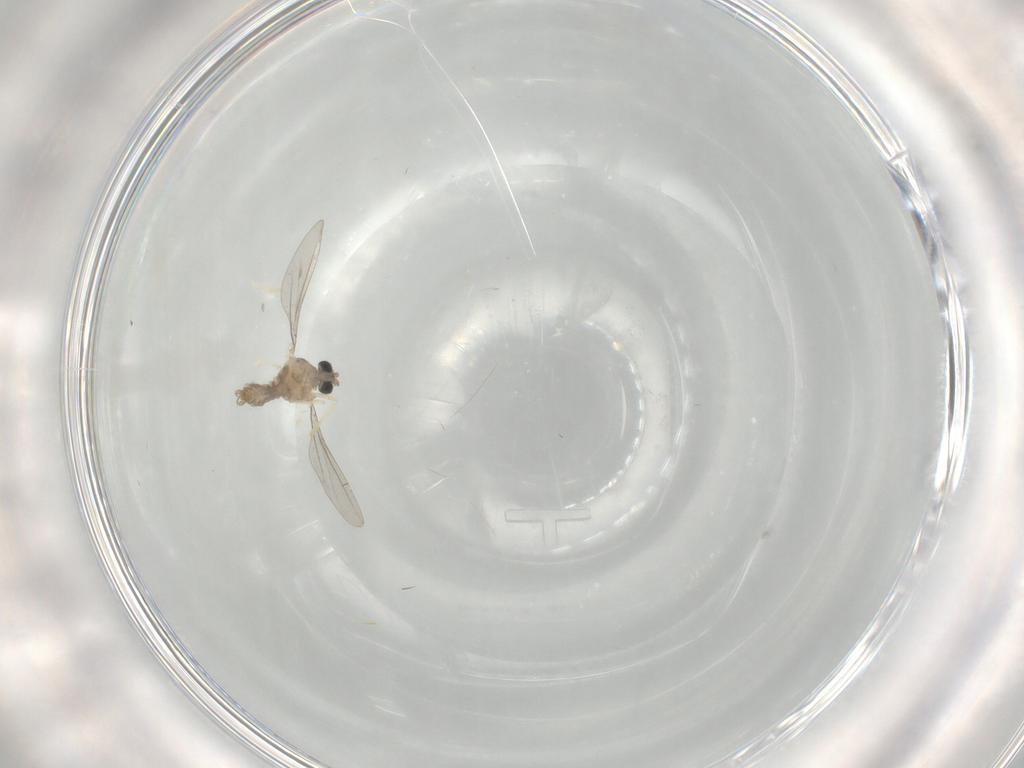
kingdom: Animalia
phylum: Arthropoda
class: Insecta
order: Diptera
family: Cecidomyiidae
